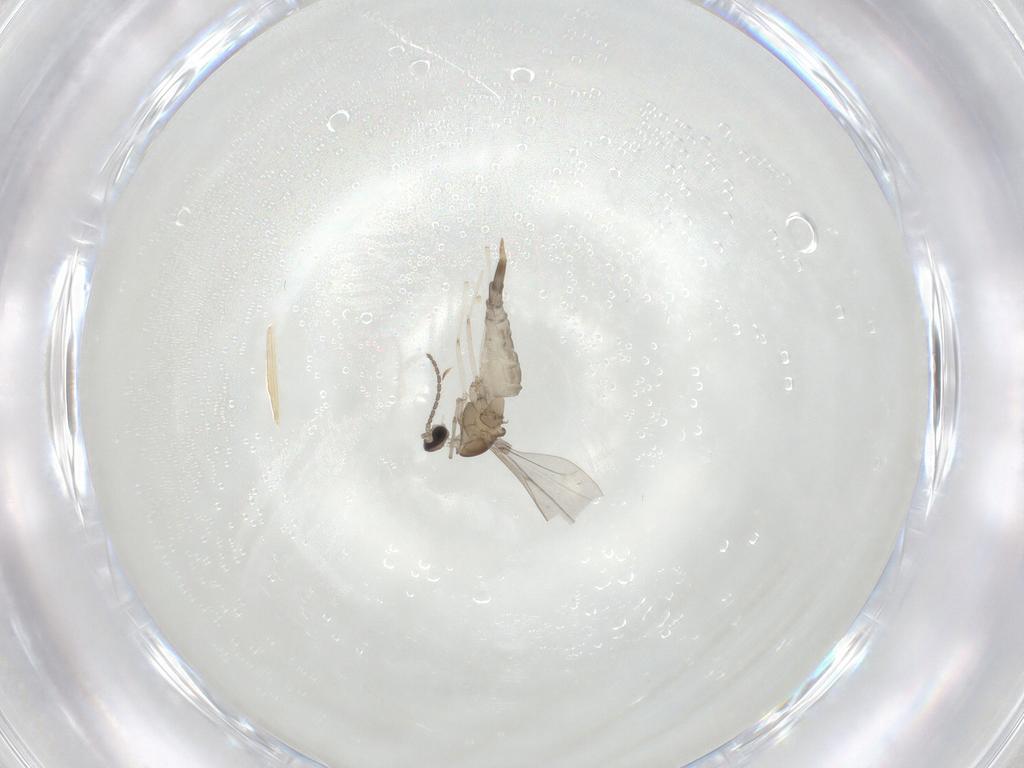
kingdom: Animalia
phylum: Arthropoda
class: Insecta
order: Diptera
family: Cecidomyiidae
